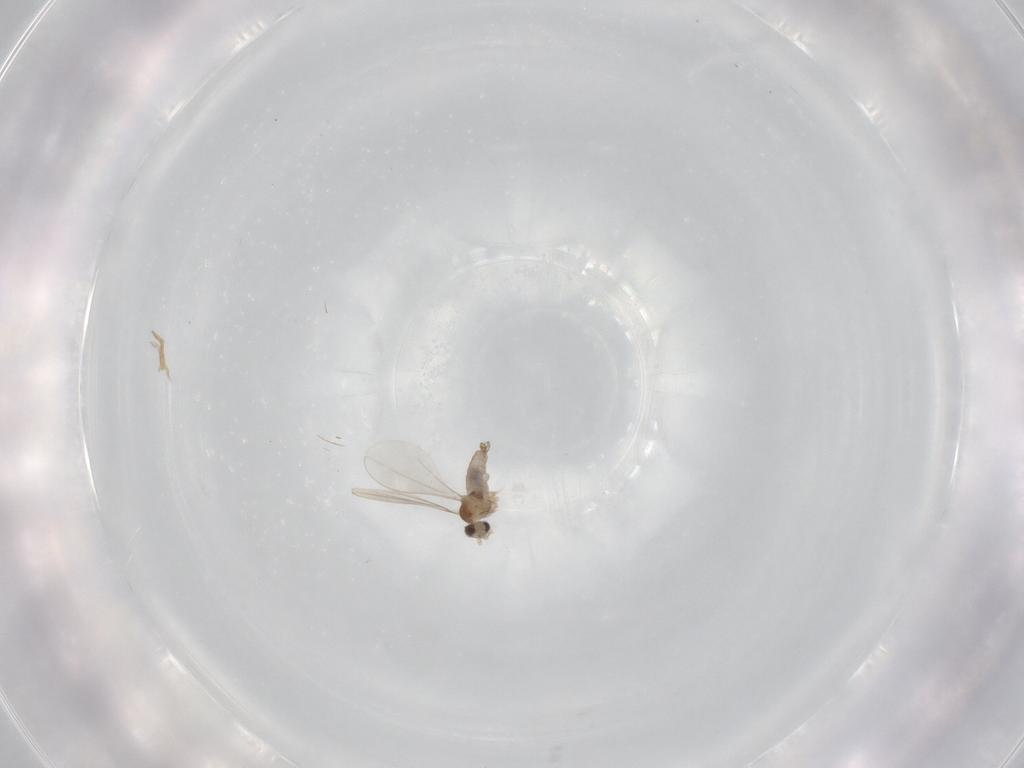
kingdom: Animalia
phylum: Arthropoda
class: Insecta
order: Diptera
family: Cecidomyiidae
